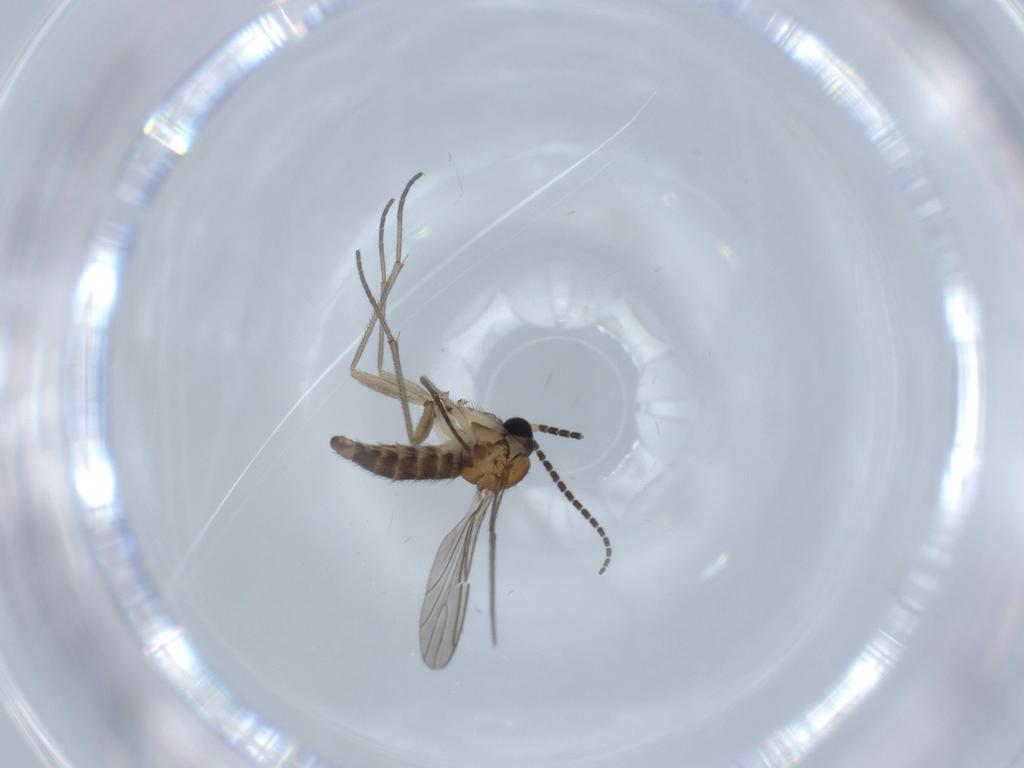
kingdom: Animalia
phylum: Arthropoda
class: Insecta
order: Diptera
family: Sciaridae
